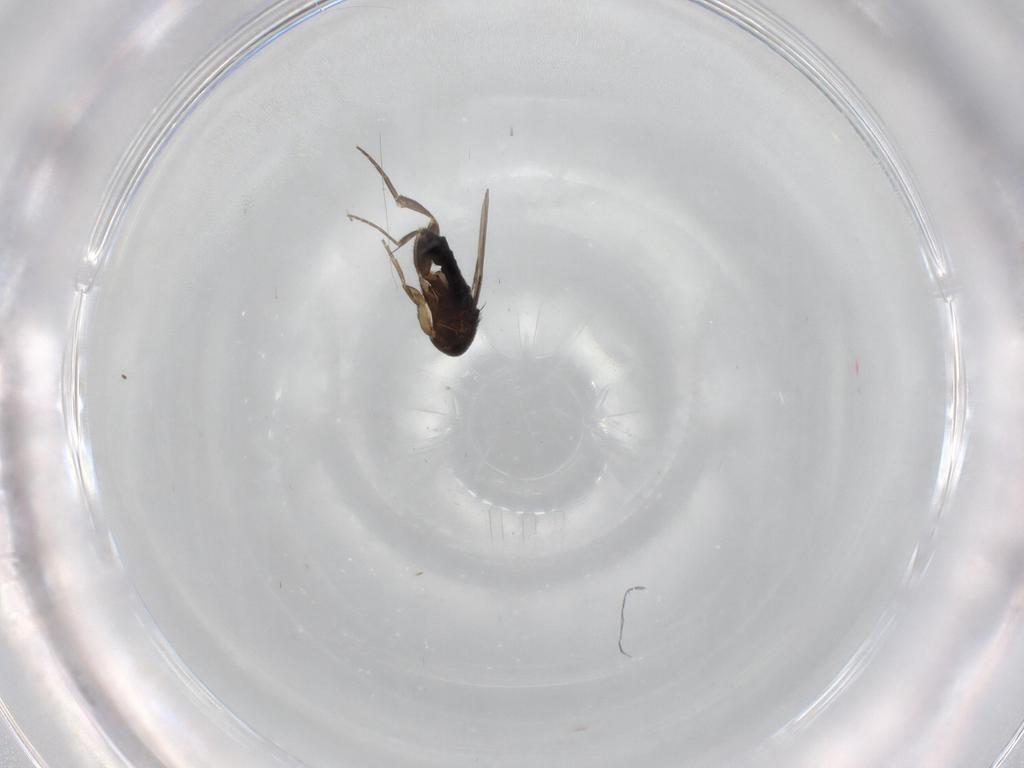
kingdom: Animalia
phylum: Arthropoda
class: Insecta
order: Diptera
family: Phoridae
